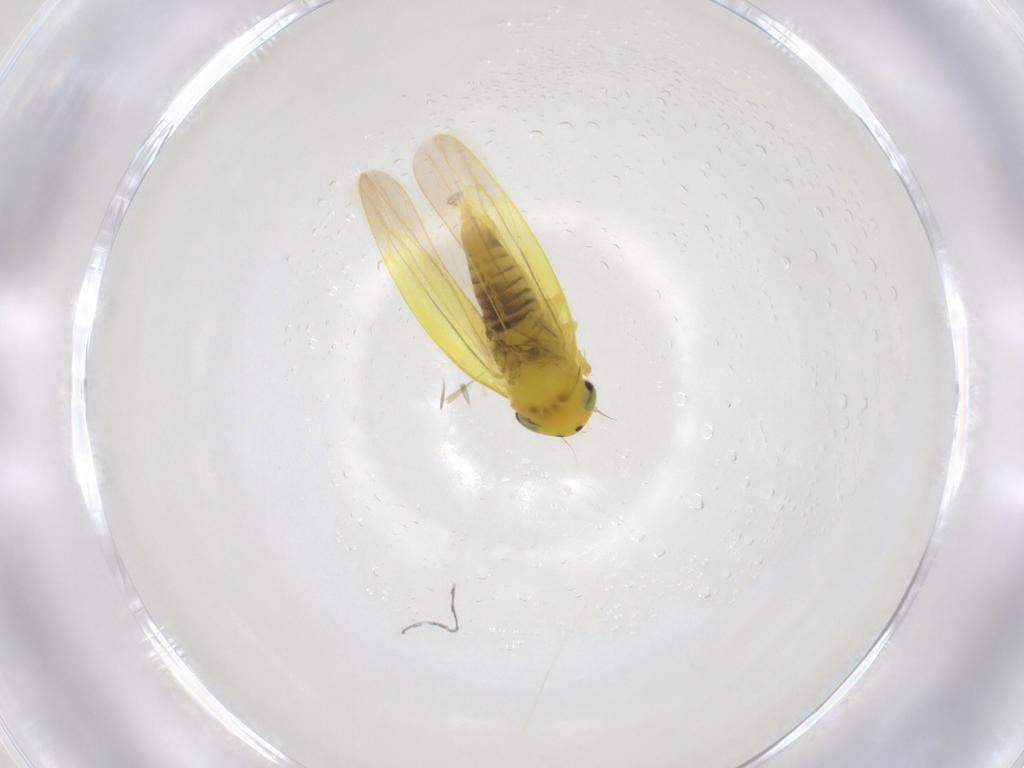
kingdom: Animalia
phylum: Arthropoda
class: Insecta
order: Hemiptera
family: Cicadellidae
